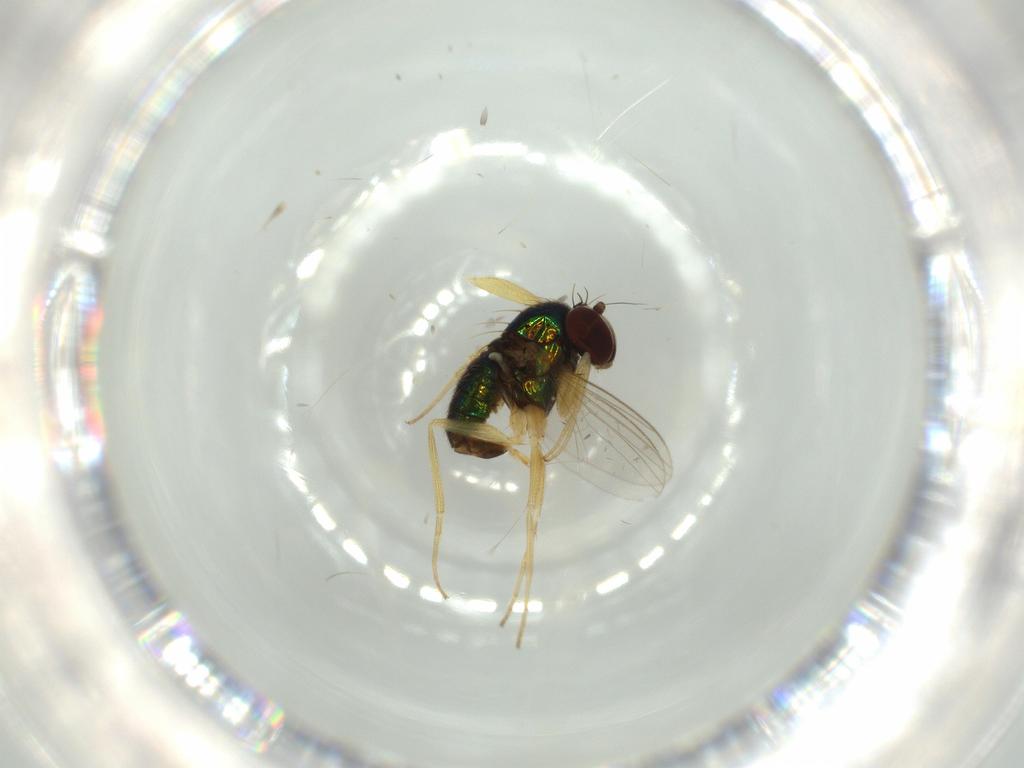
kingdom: Animalia
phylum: Arthropoda
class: Insecta
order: Diptera
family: Dolichopodidae
